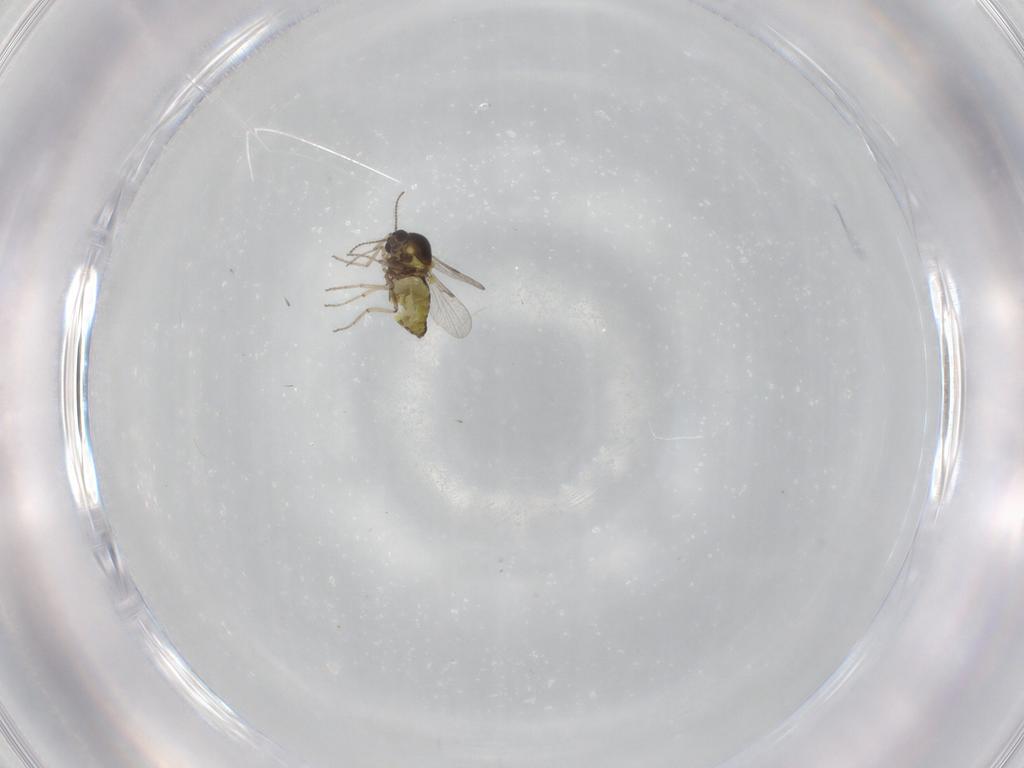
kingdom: Animalia
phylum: Arthropoda
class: Insecta
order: Diptera
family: Ceratopogonidae
